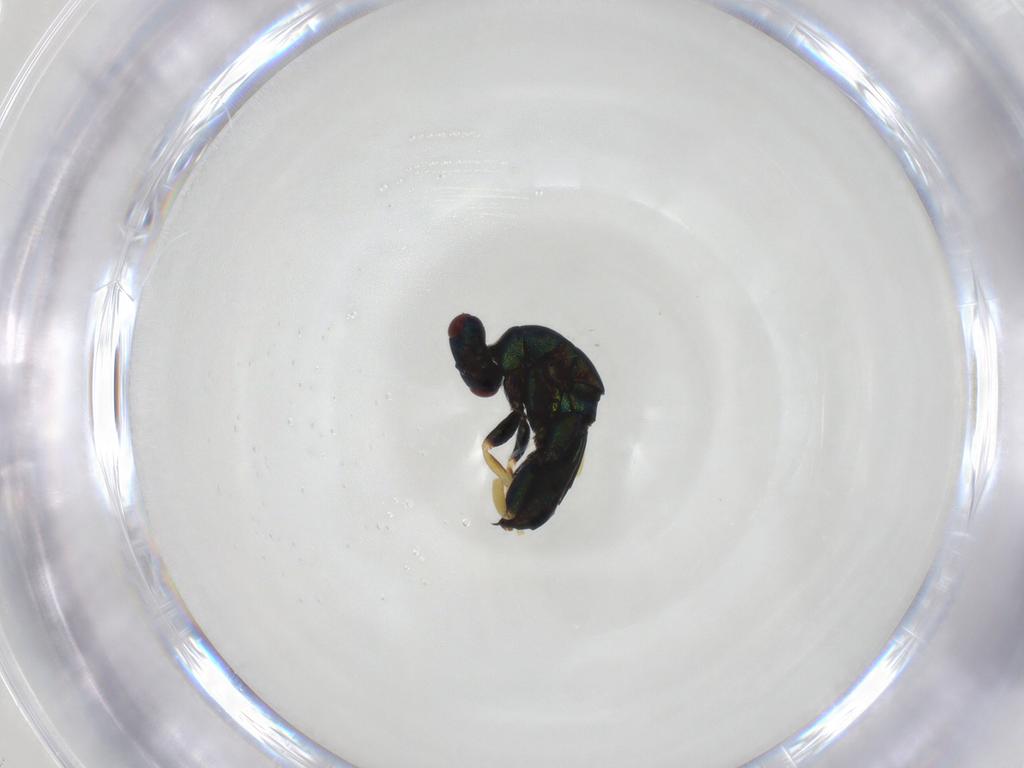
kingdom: Animalia
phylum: Arthropoda
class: Insecta
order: Hymenoptera
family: Torymidae
